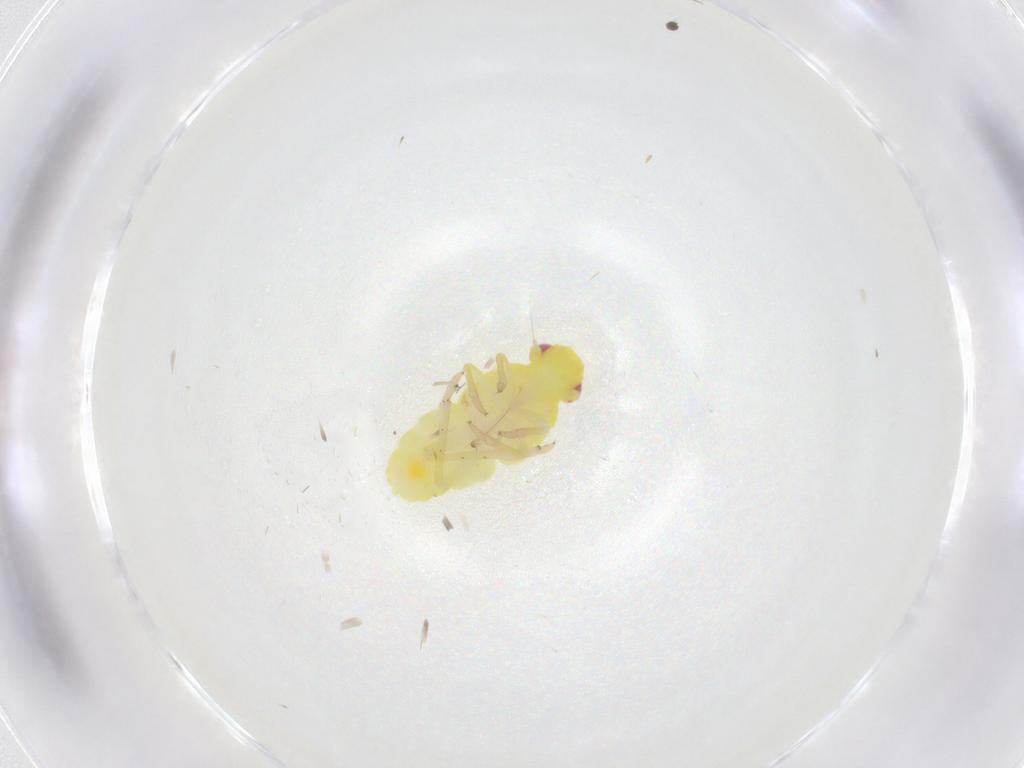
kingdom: Animalia
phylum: Arthropoda
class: Insecta
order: Hemiptera
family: Tropiduchidae
